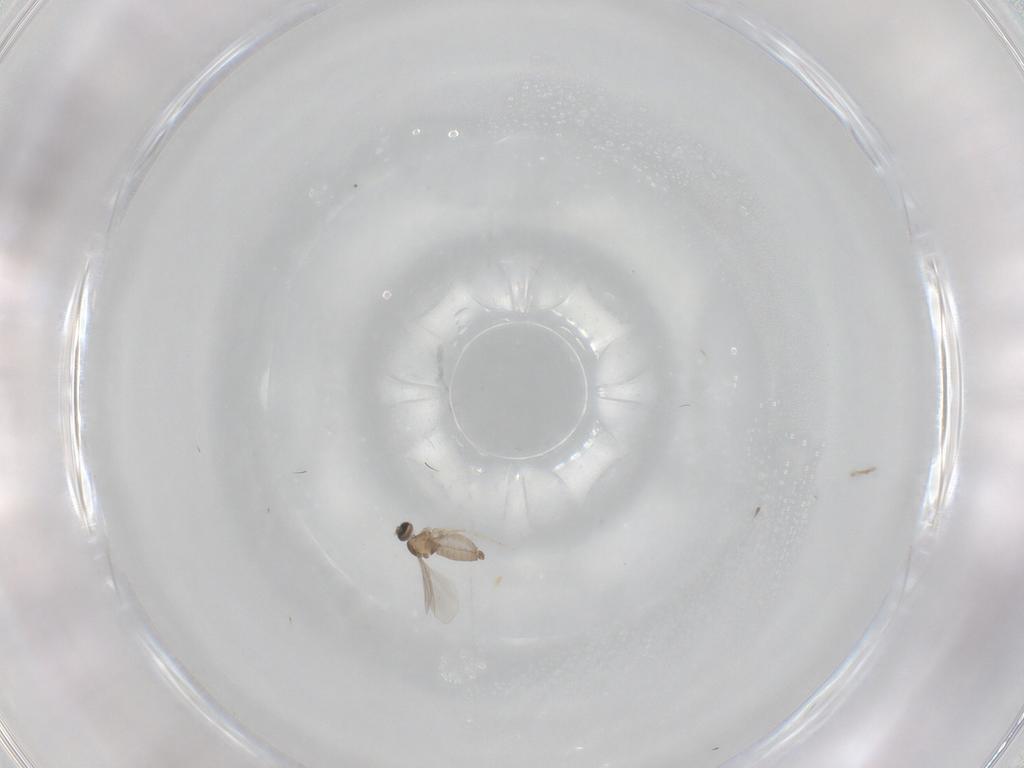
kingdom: Animalia
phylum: Arthropoda
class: Insecta
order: Diptera
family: Cecidomyiidae
